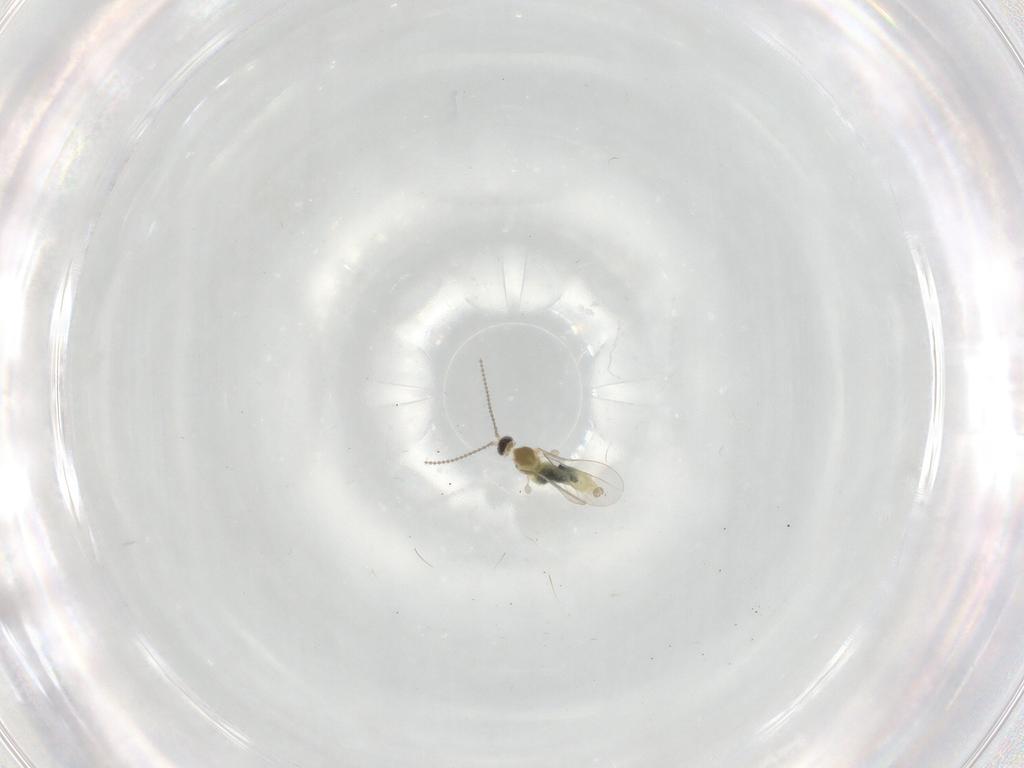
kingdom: Animalia
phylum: Arthropoda
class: Insecta
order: Diptera
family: Cecidomyiidae
